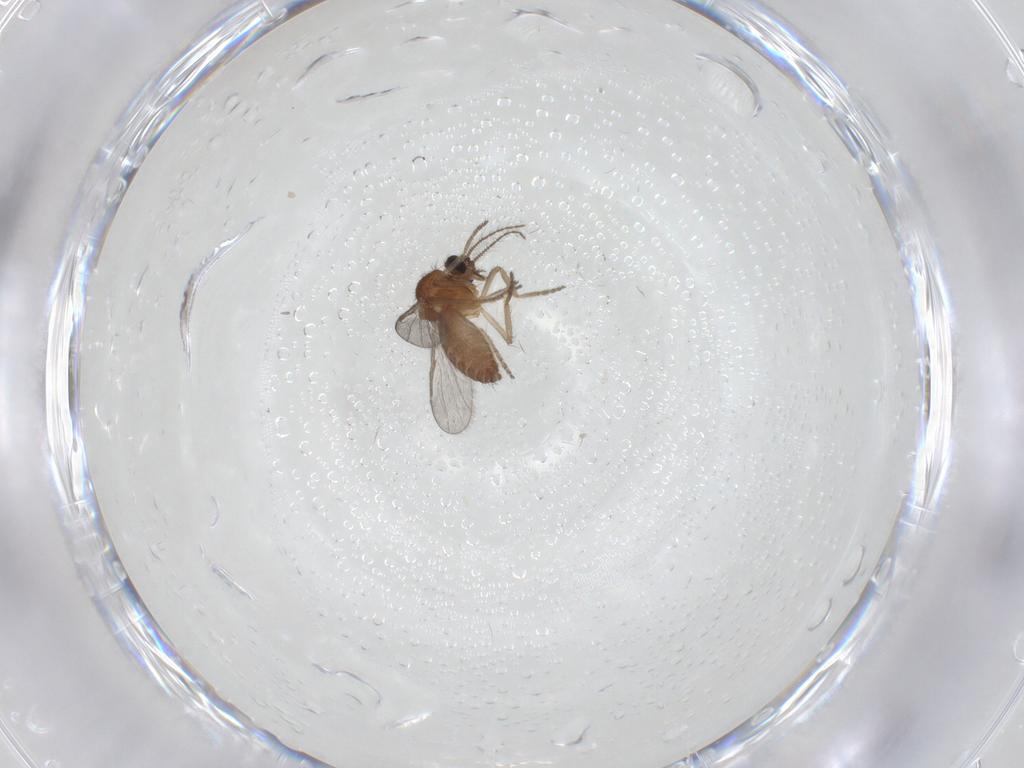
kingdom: Animalia
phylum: Arthropoda
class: Insecta
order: Diptera
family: Ceratopogonidae
